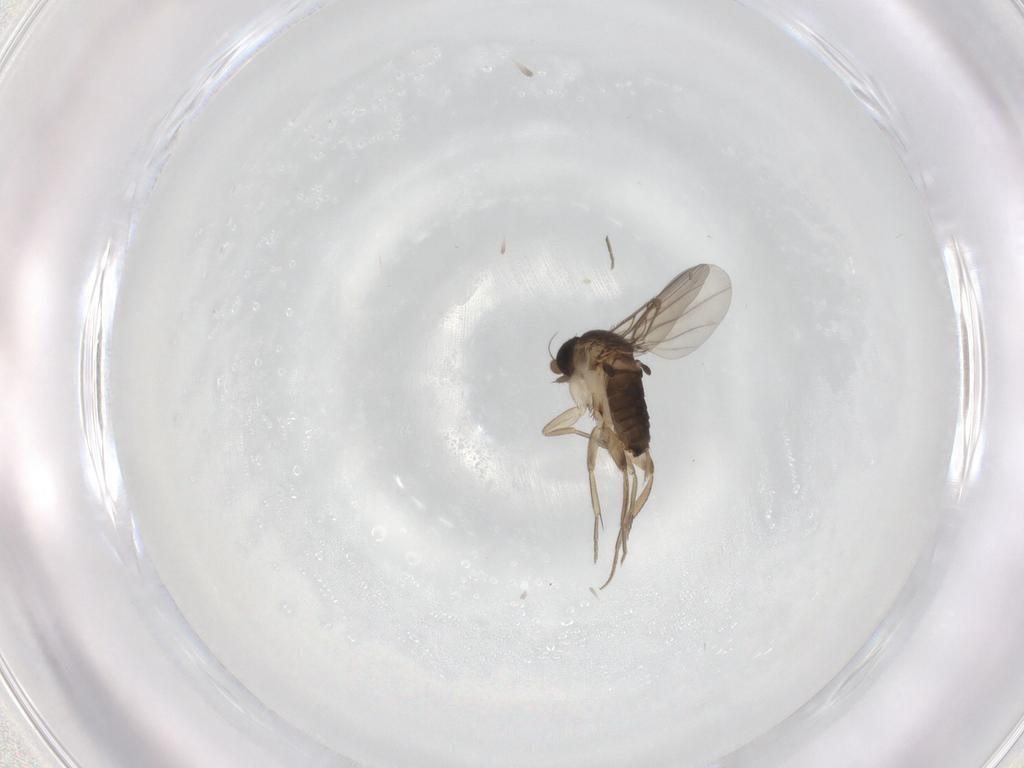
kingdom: Animalia
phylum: Arthropoda
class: Insecta
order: Diptera
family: Phoridae
